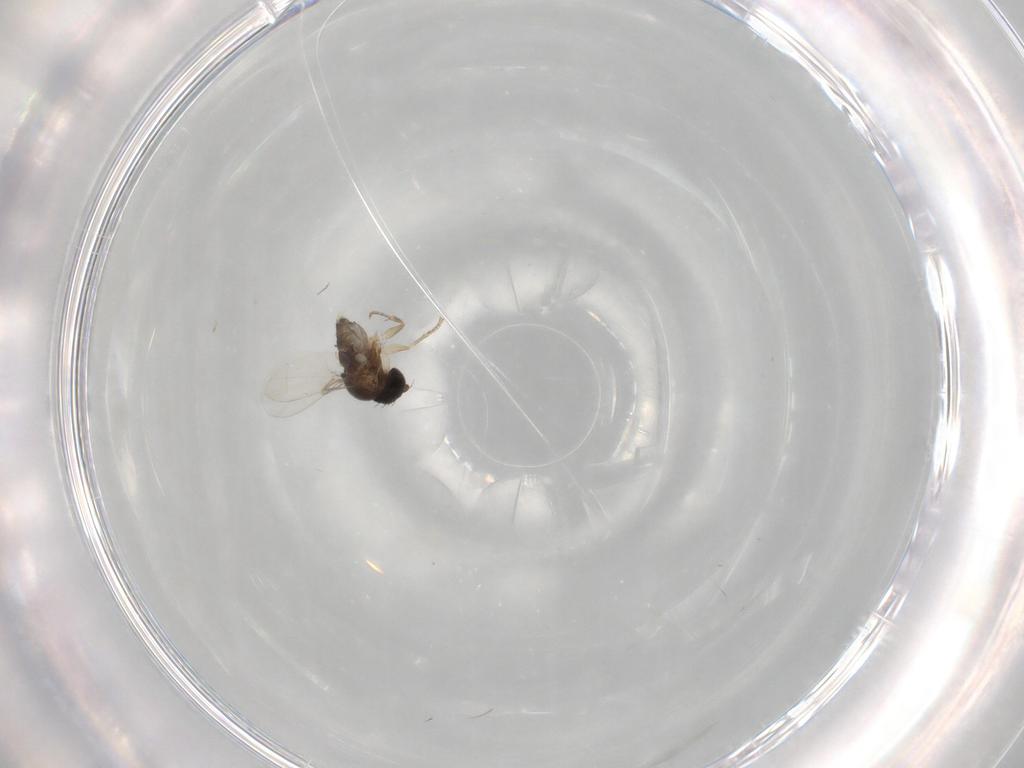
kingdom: Animalia
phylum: Arthropoda
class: Insecta
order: Diptera
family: Phoridae
